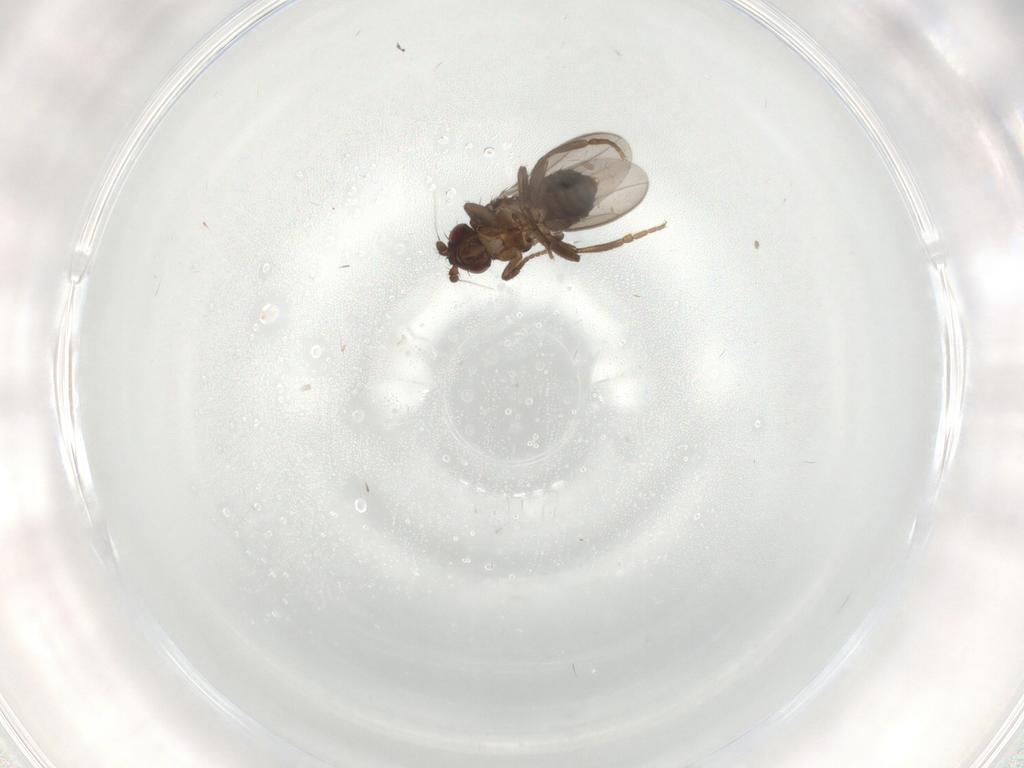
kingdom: Animalia
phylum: Arthropoda
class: Insecta
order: Diptera
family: Sphaeroceridae
